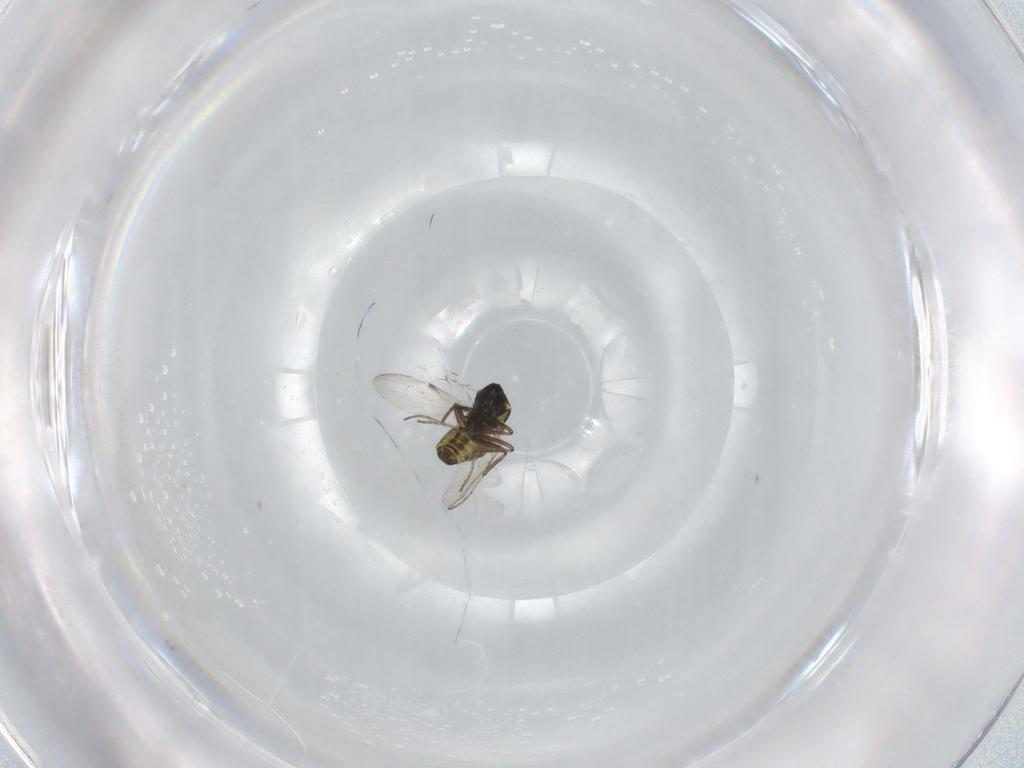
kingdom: Animalia
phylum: Arthropoda
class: Insecta
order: Diptera
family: Ceratopogonidae
